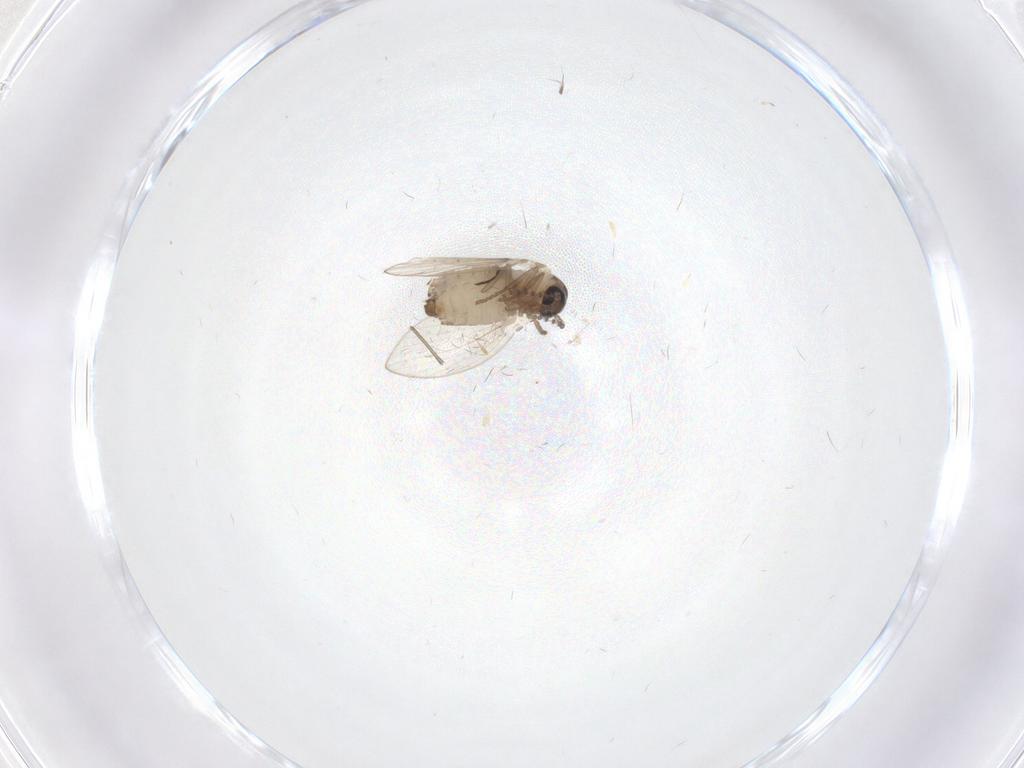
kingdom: Animalia
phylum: Arthropoda
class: Insecta
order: Diptera
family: Psychodidae
